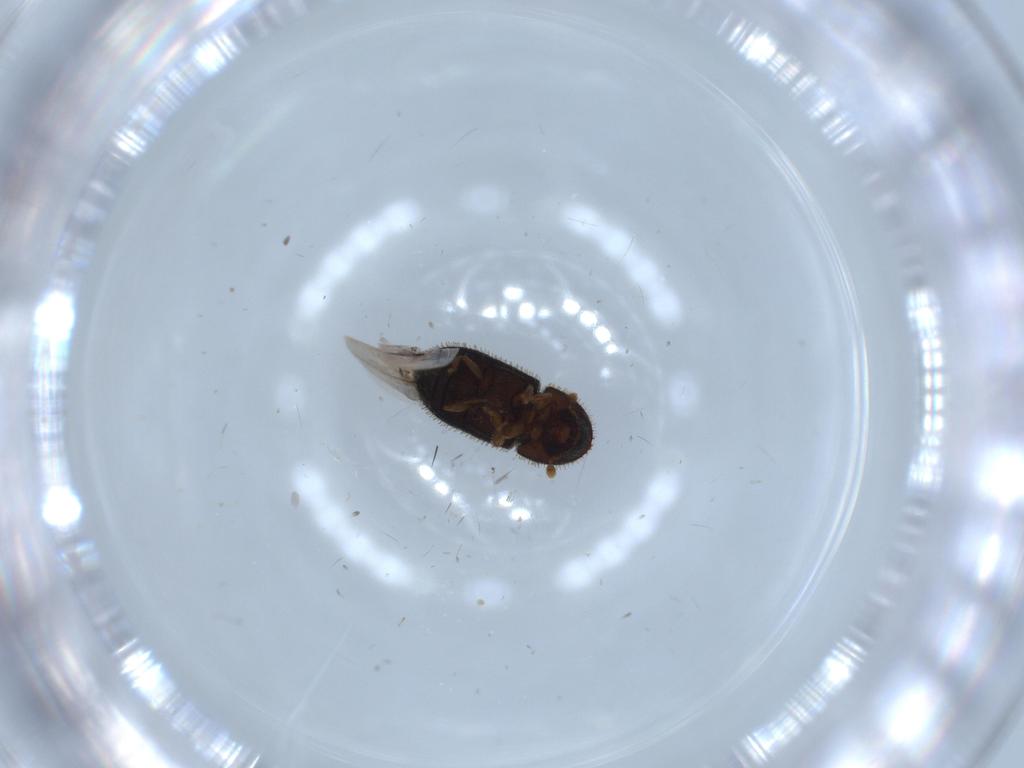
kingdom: Animalia
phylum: Arthropoda
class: Insecta
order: Coleoptera
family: Curculionidae
